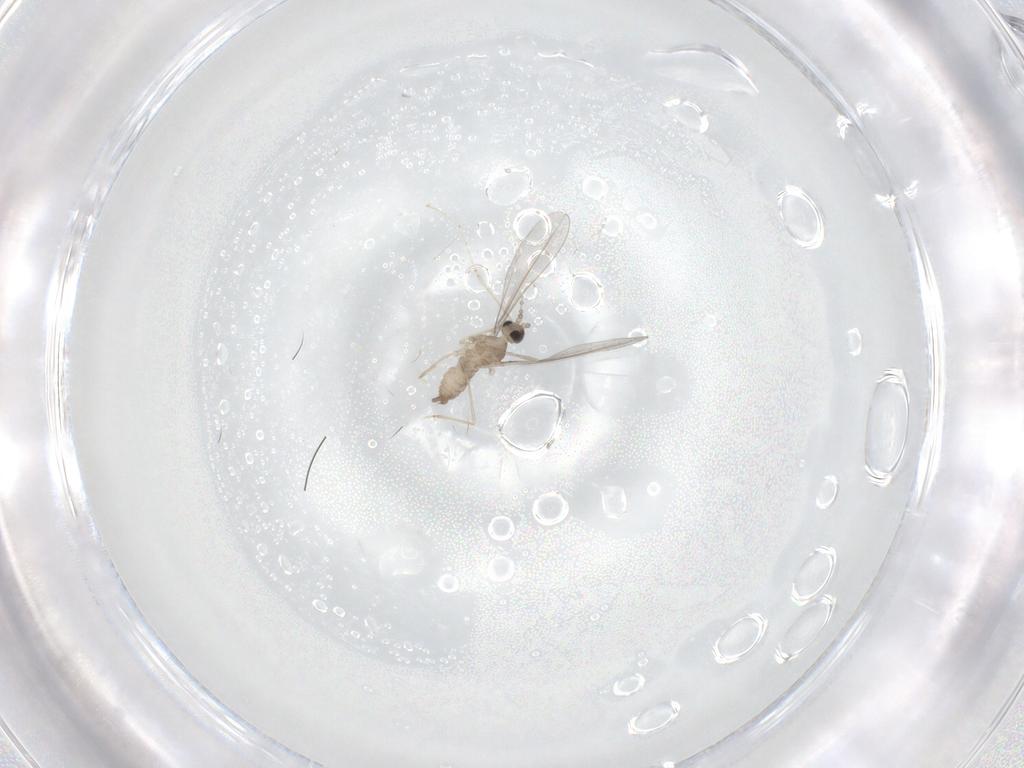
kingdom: Animalia
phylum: Arthropoda
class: Insecta
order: Diptera
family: Cecidomyiidae
